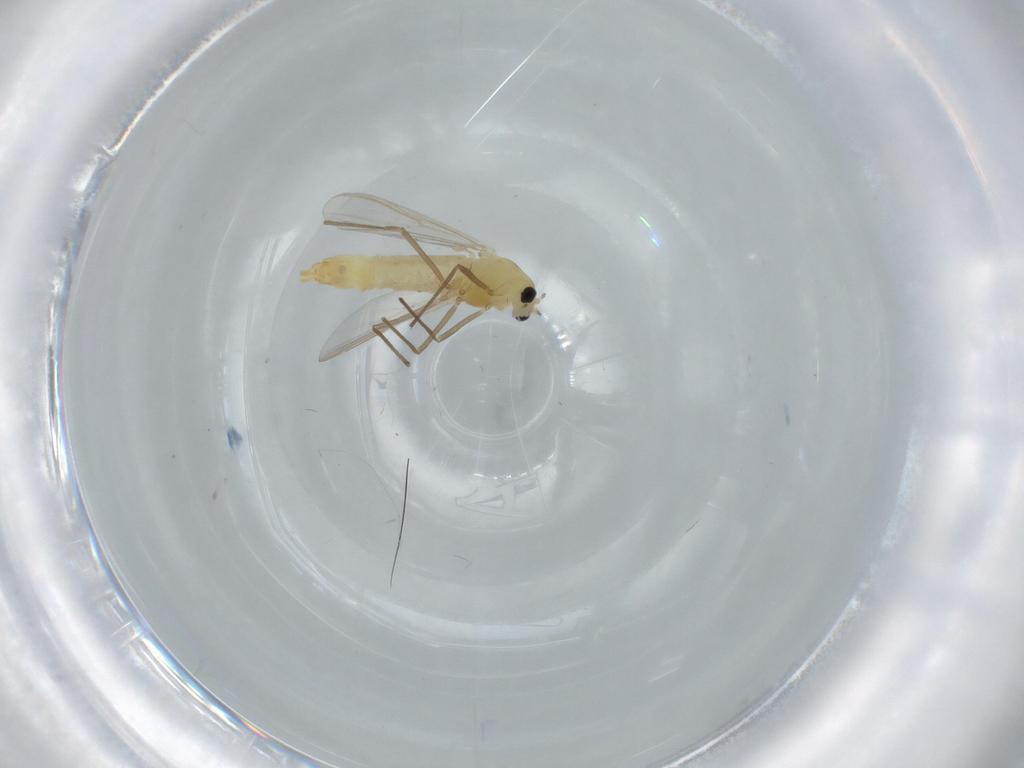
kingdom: Animalia
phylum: Arthropoda
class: Insecta
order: Diptera
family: Chironomidae
